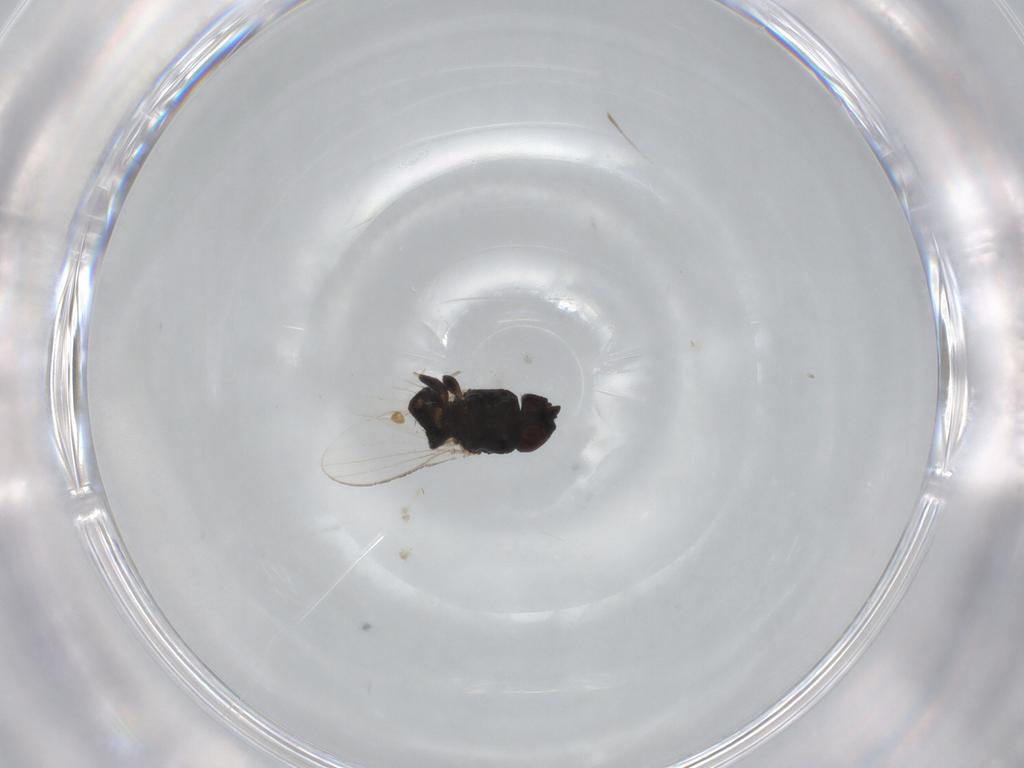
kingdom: Animalia
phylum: Arthropoda
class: Insecta
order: Diptera
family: Milichiidae
